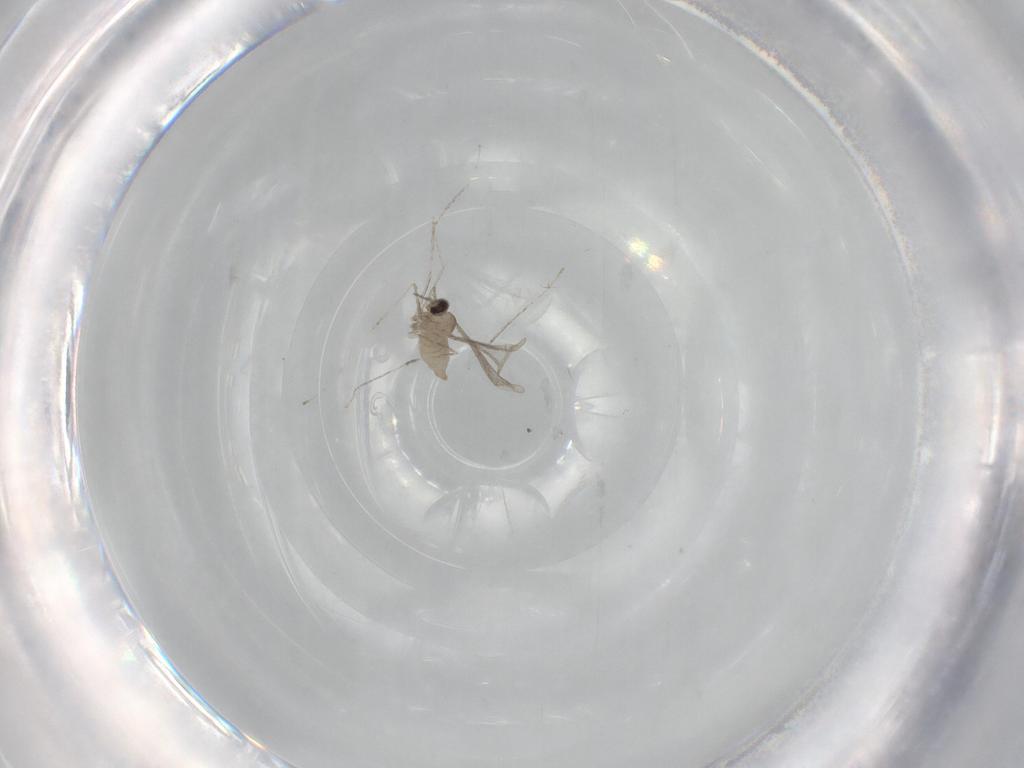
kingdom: Animalia
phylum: Arthropoda
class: Insecta
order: Diptera
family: Cecidomyiidae
